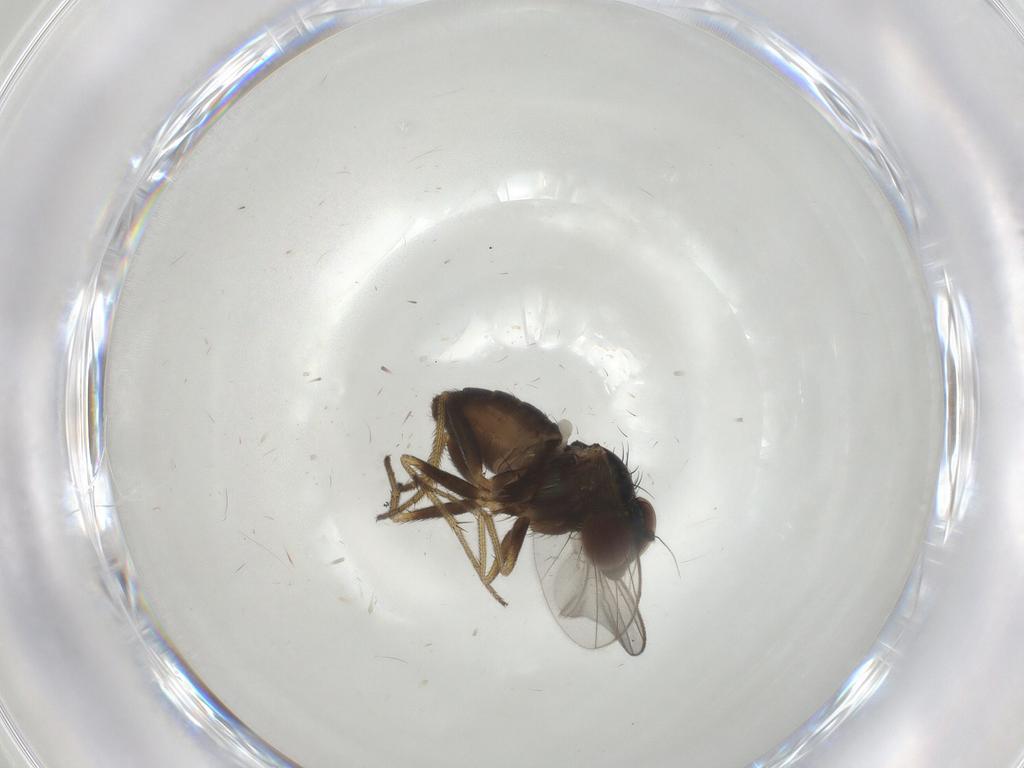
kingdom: Animalia
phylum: Arthropoda
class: Insecta
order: Diptera
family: Dolichopodidae
